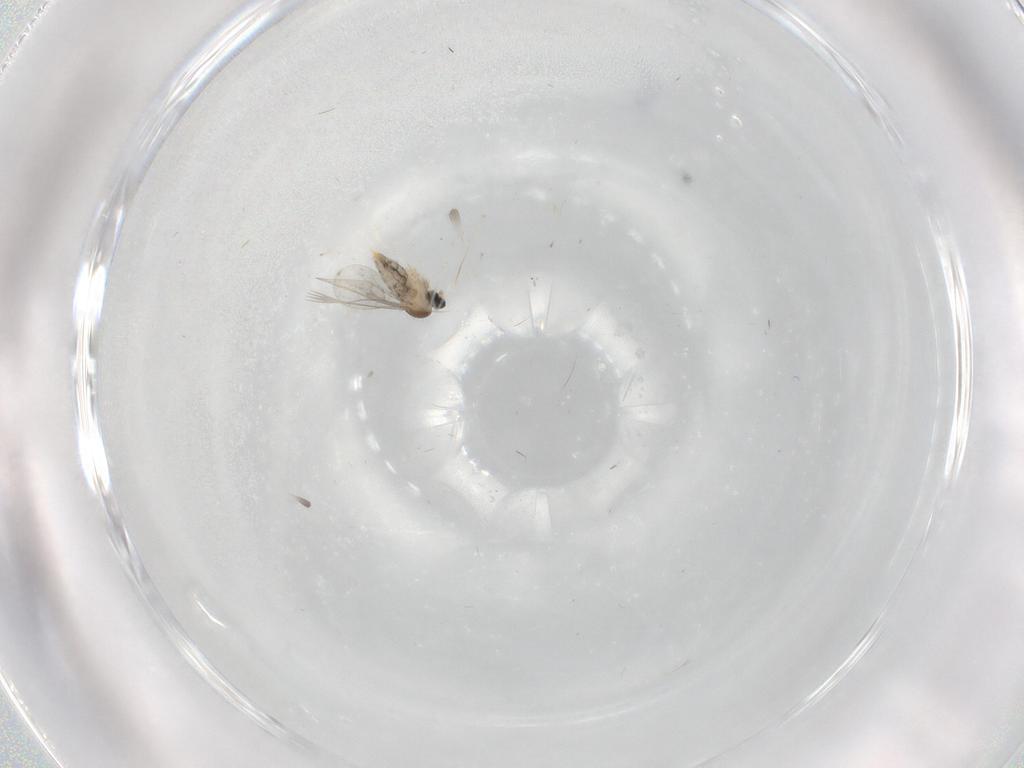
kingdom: Animalia
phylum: Arthropoda
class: Insecta
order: Diptera
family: Cecidomyiidae
